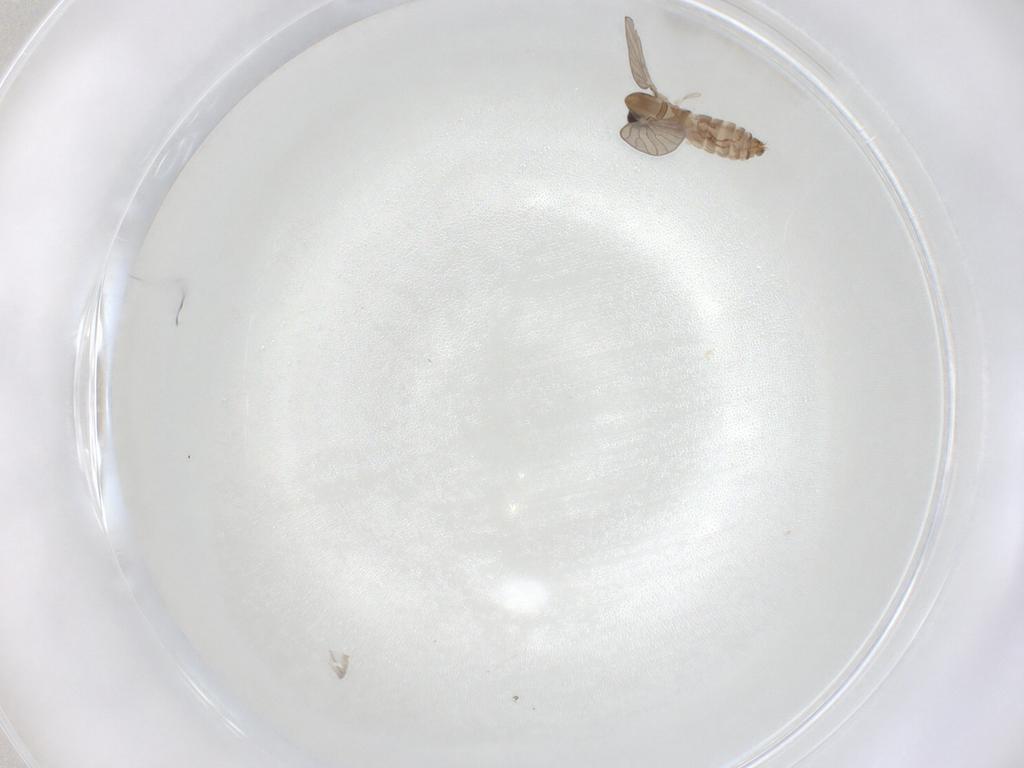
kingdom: Animalia
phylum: Arthropoda
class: Insecta
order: Diptera
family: Psychodidae
